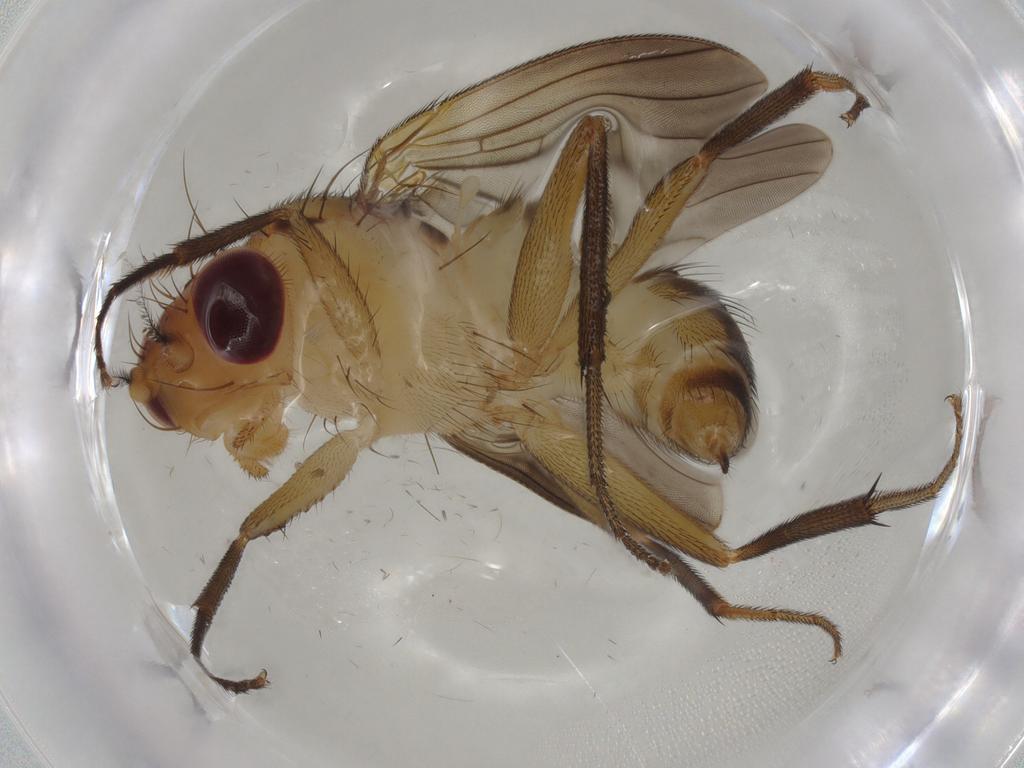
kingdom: Animalia
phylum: Arthropoda
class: Insecta
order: Diptera
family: Clusiidae
